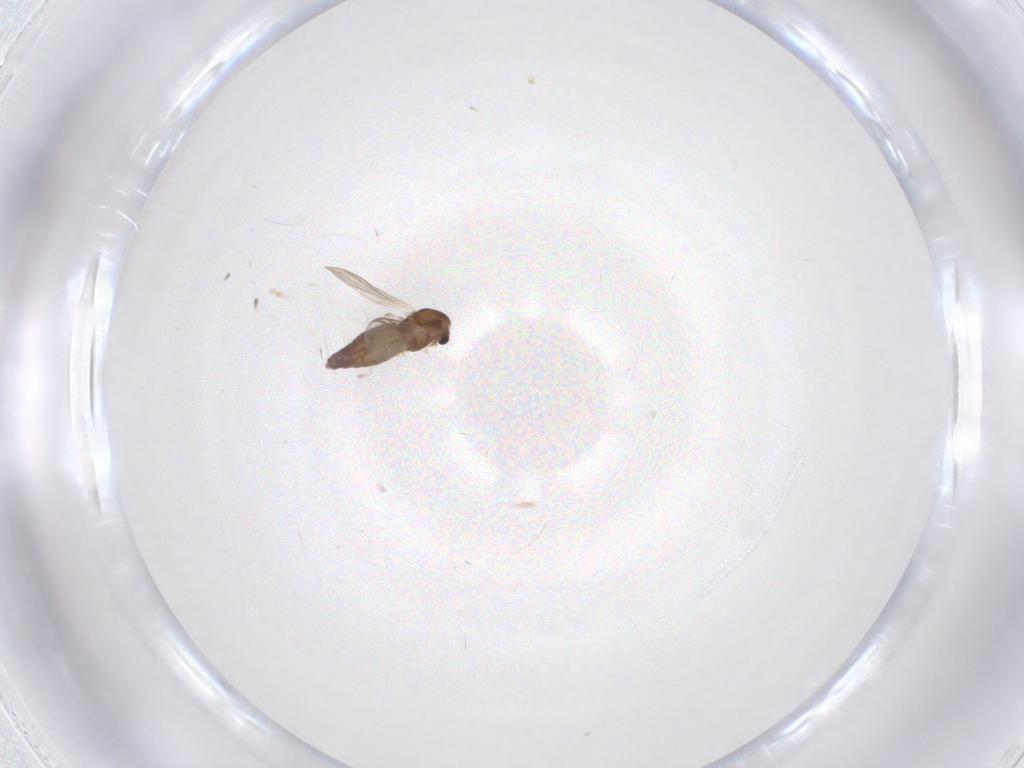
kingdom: Animalia
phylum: Arthropoda
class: Insecta
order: Diptera
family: Chironomidae
